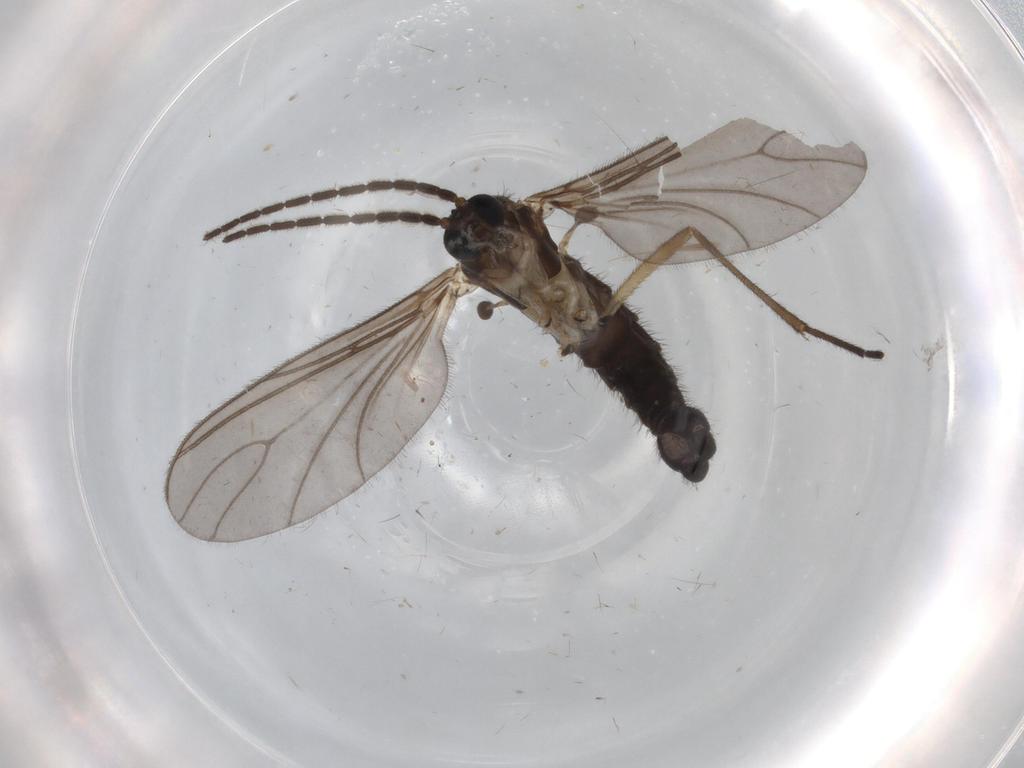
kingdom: Animalia
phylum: Arthropoda
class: Insecta
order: Diptera
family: Sciaridae
